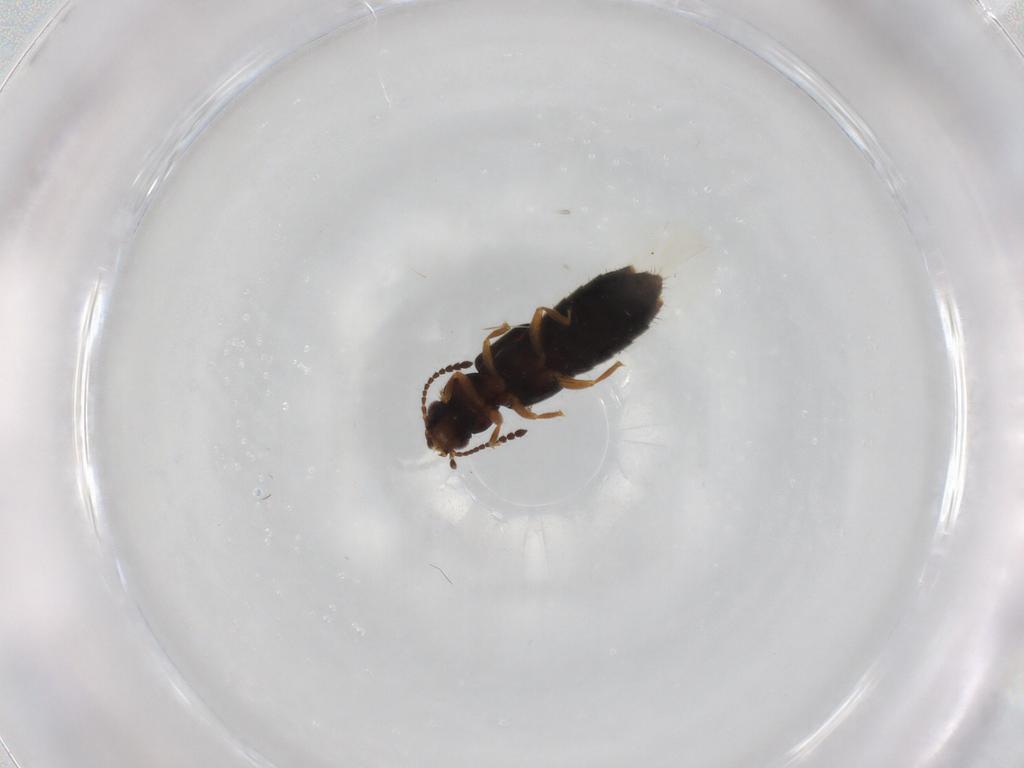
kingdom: Animalia
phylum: Arthropoda
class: Insecta
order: Coleoptera
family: Staphylinidae
